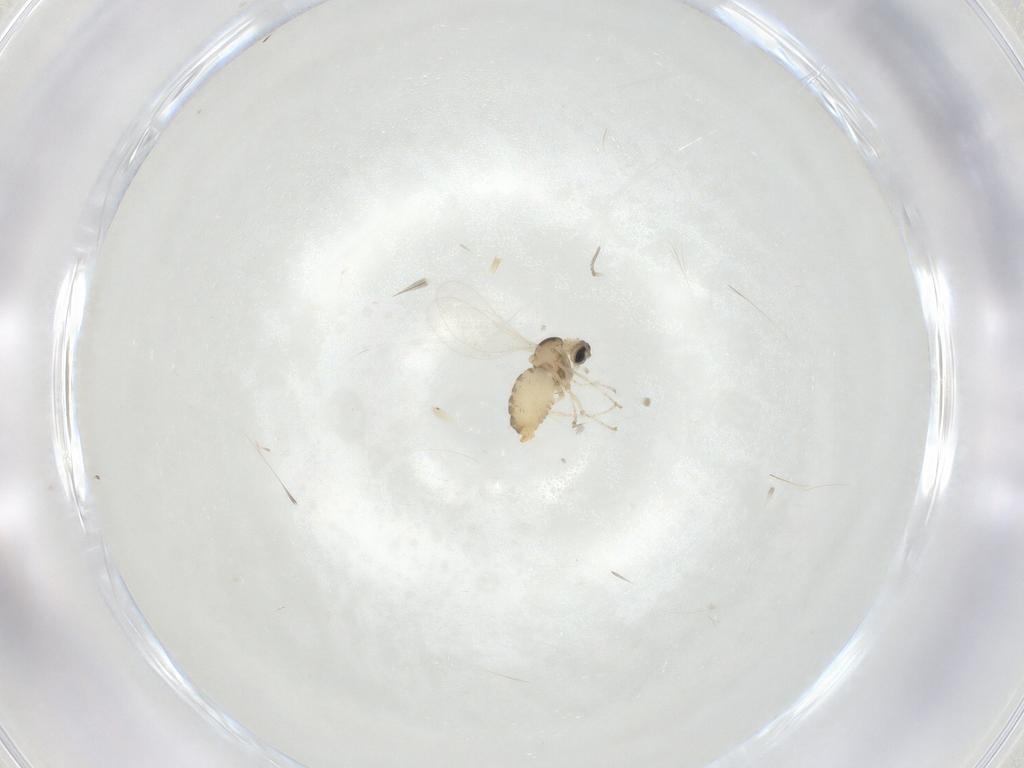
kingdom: Animalia
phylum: Arthropoda
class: Insecta
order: Diptera
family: Cecidomyiidae
